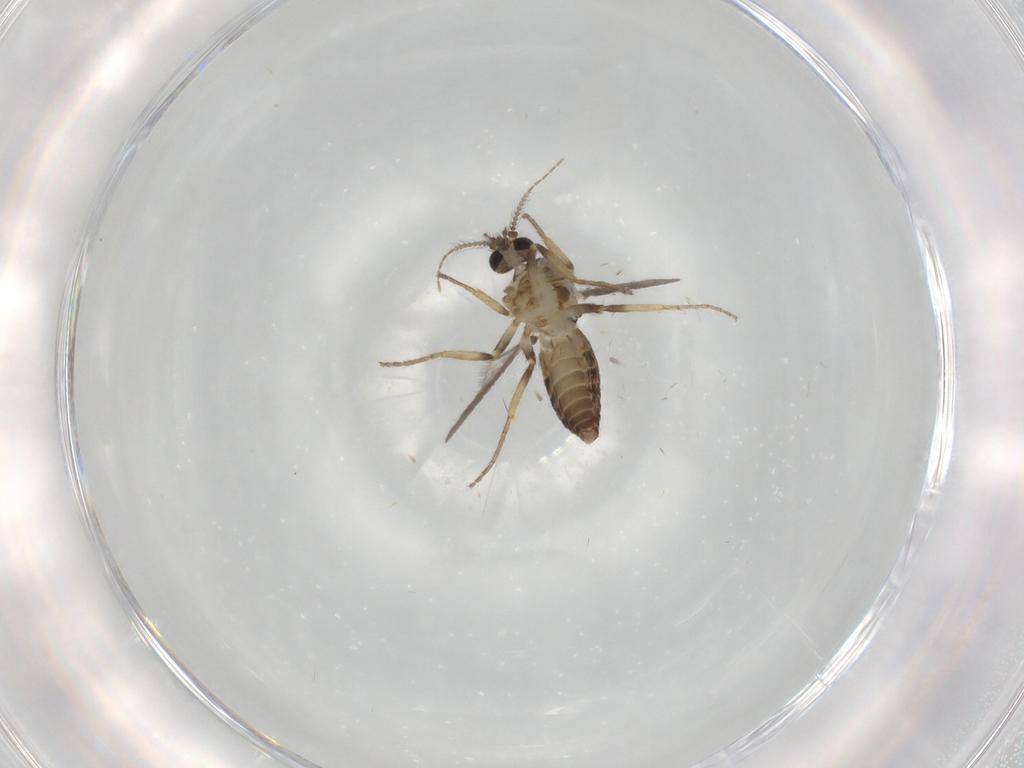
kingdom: Animalia
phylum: Arthropoda
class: Insecta
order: Diptera
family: Ceratopogonidae
